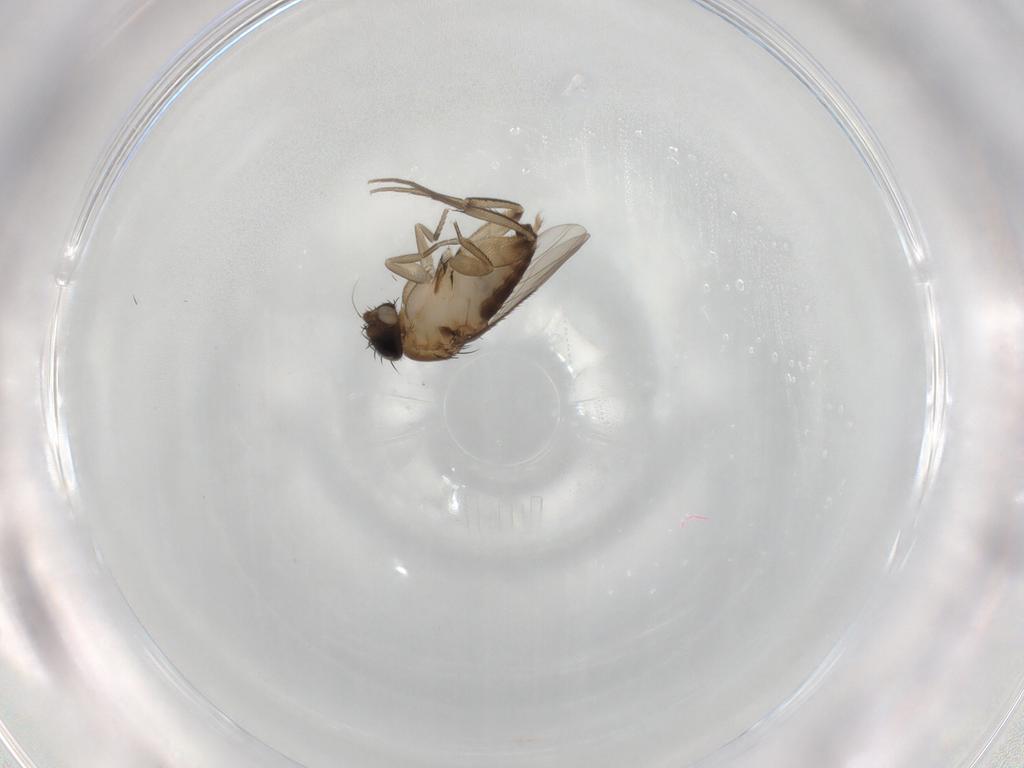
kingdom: Animalia
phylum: Arthropoda
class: Insecta
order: Diptera
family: Phoridae
